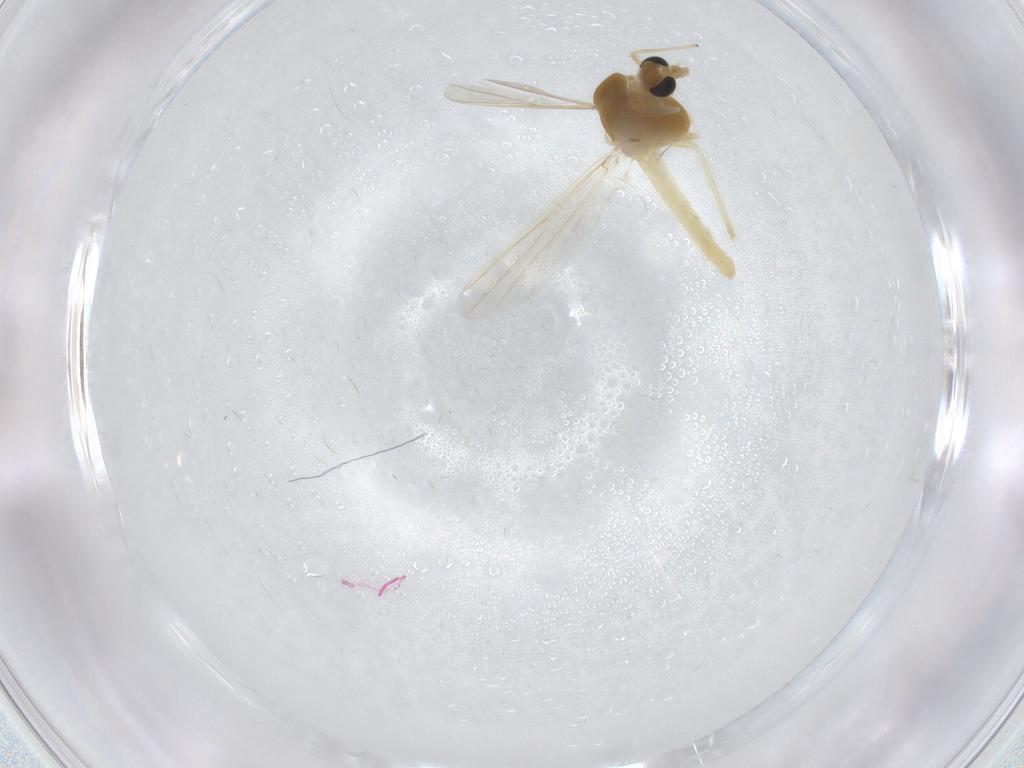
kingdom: Animalia
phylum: Arthropoda
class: Insecta
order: Diptera
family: Chironomidae
